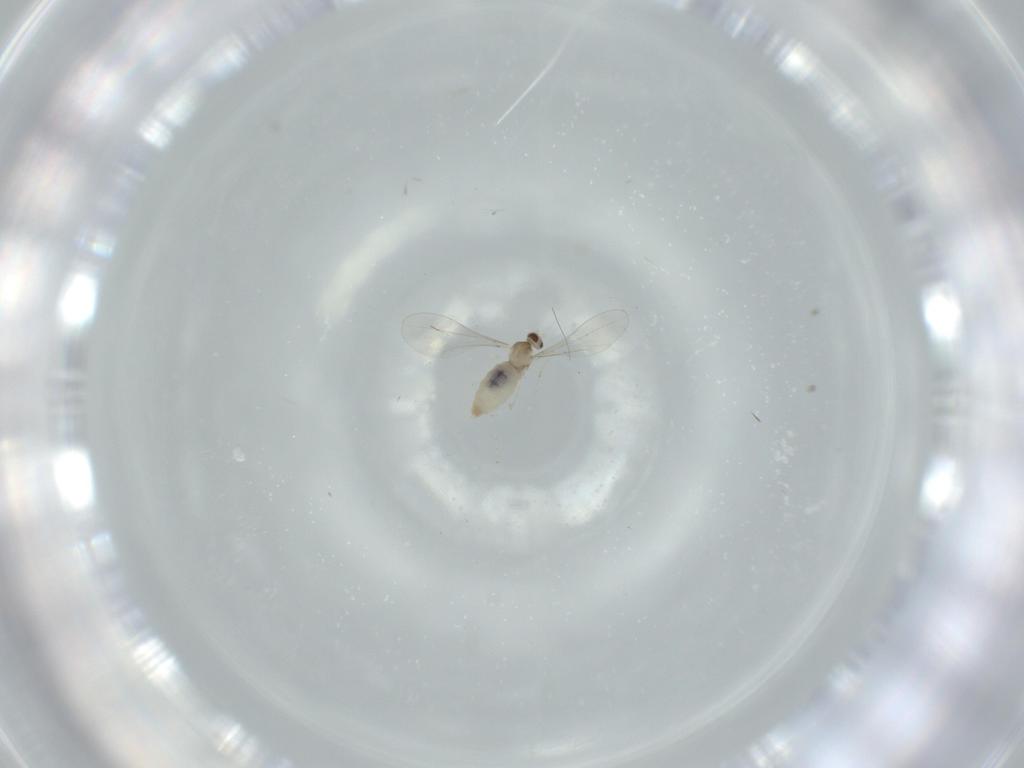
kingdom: Animalia
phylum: Arthropoda
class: Insecta
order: Diptera
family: Cecidomyiidae
